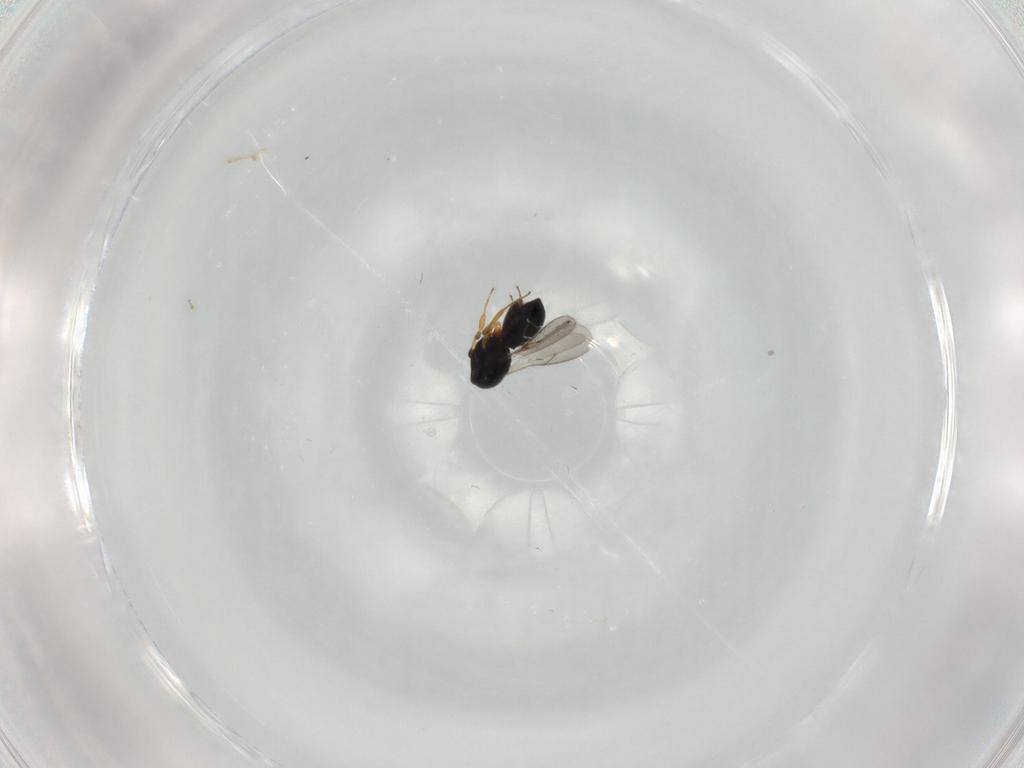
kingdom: Animalia
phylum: Arthropoda
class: Insecta
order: Hymenoptera
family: Scelionidae
